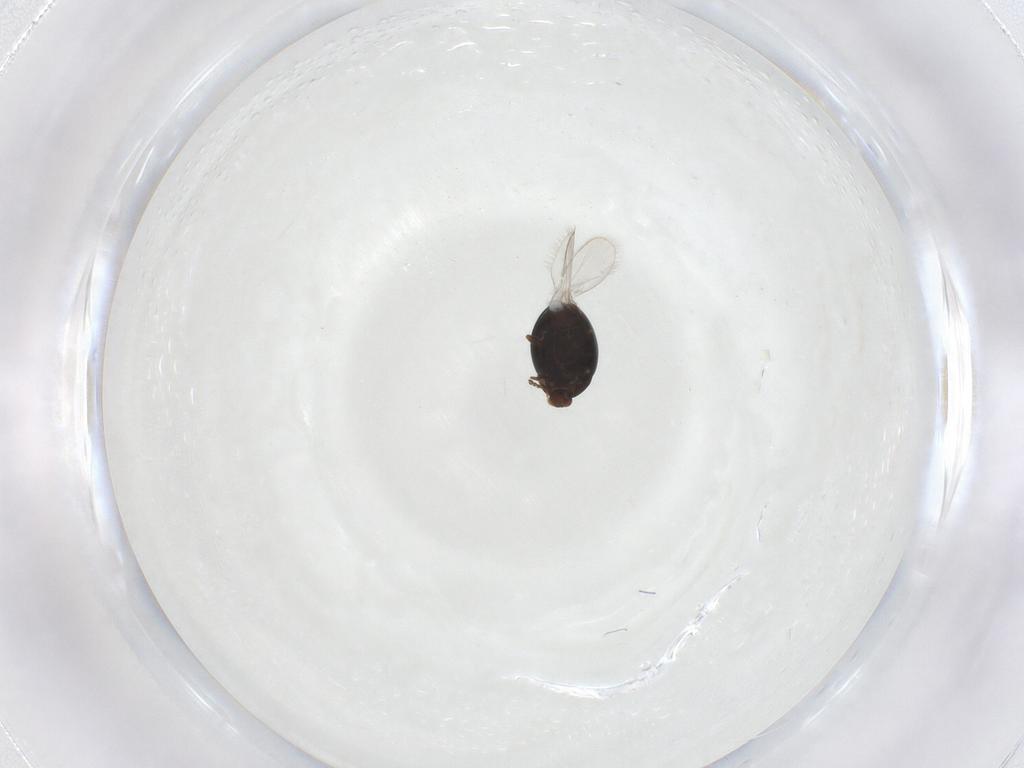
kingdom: Animalia
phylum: Arthropoda
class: Insecta
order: Coleoptera
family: Corylophidae
